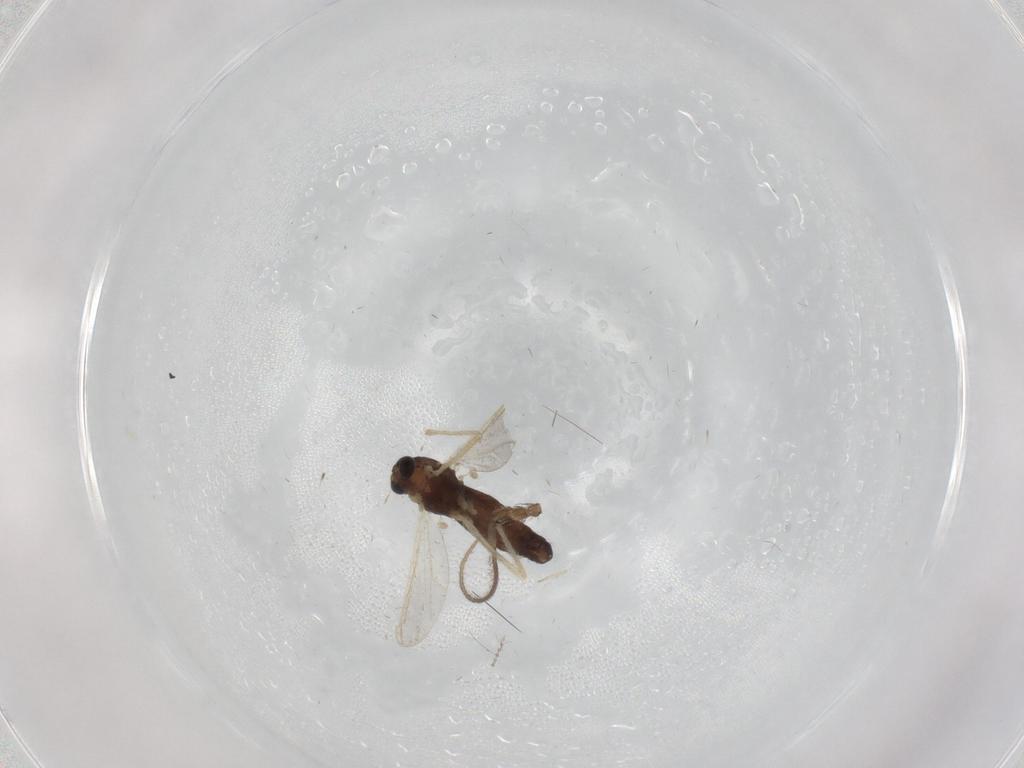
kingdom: Animalia
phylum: Arthropoda
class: Insecta
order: Diptera
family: Chironomidae
